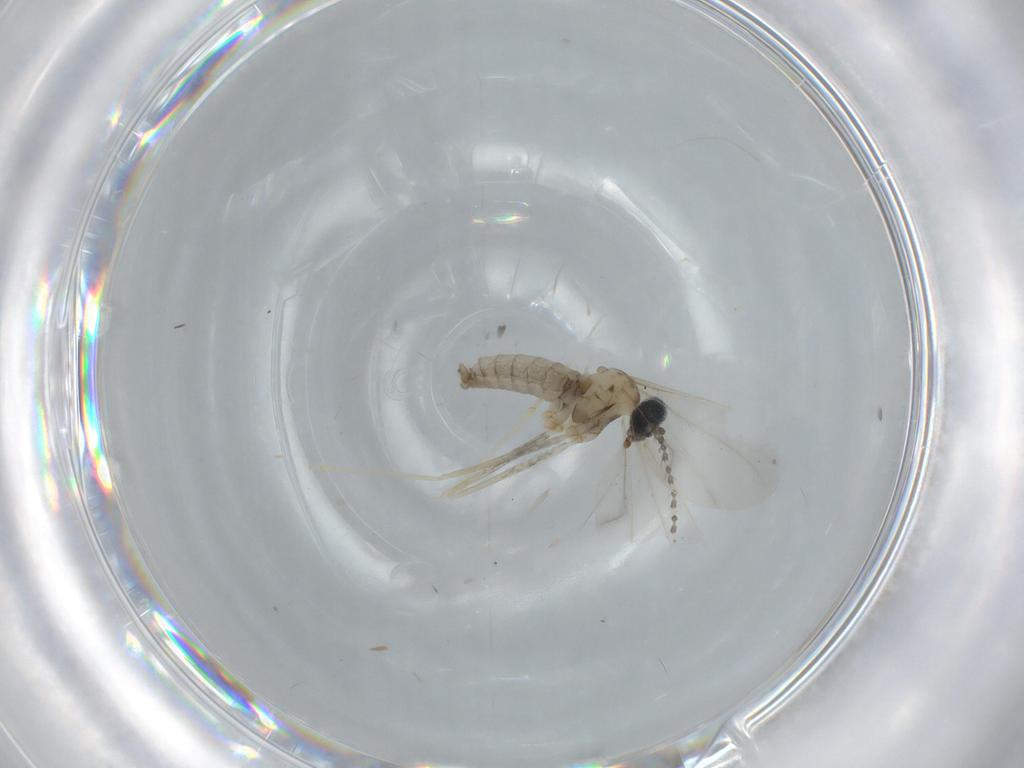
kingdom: Animalia
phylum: Arthropoda
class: Insecta
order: Diptera
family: Cecidomyiidae
